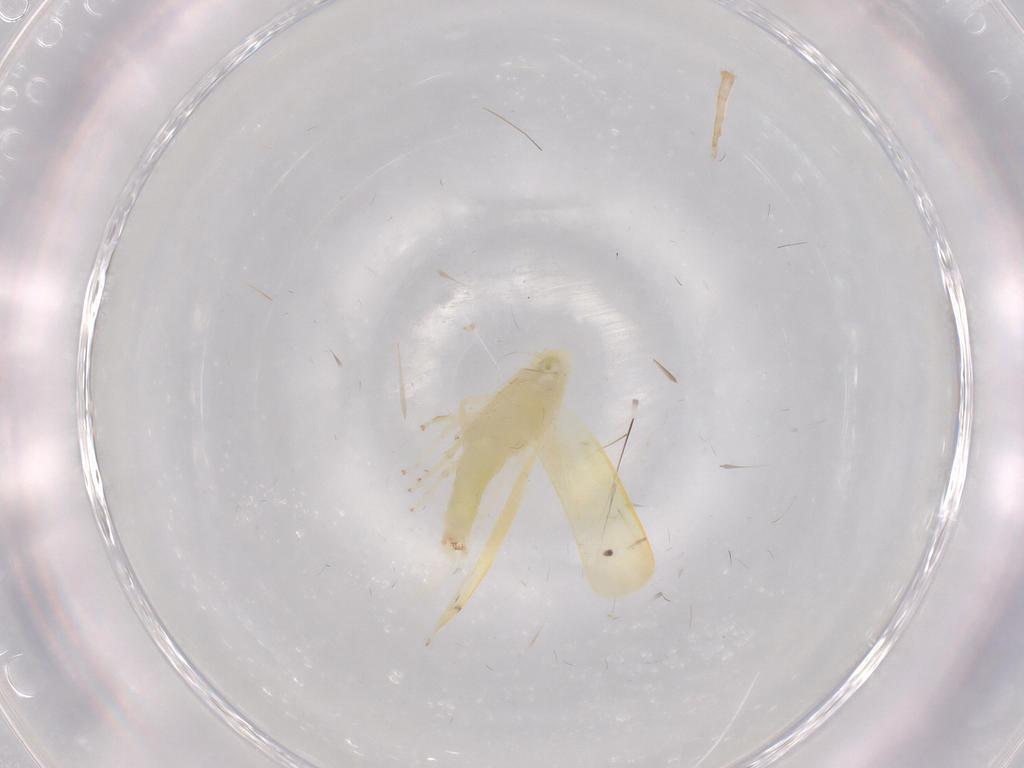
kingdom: Animalia
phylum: Arthropoda
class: Insecta
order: Hemiptera
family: Cicadellidae
